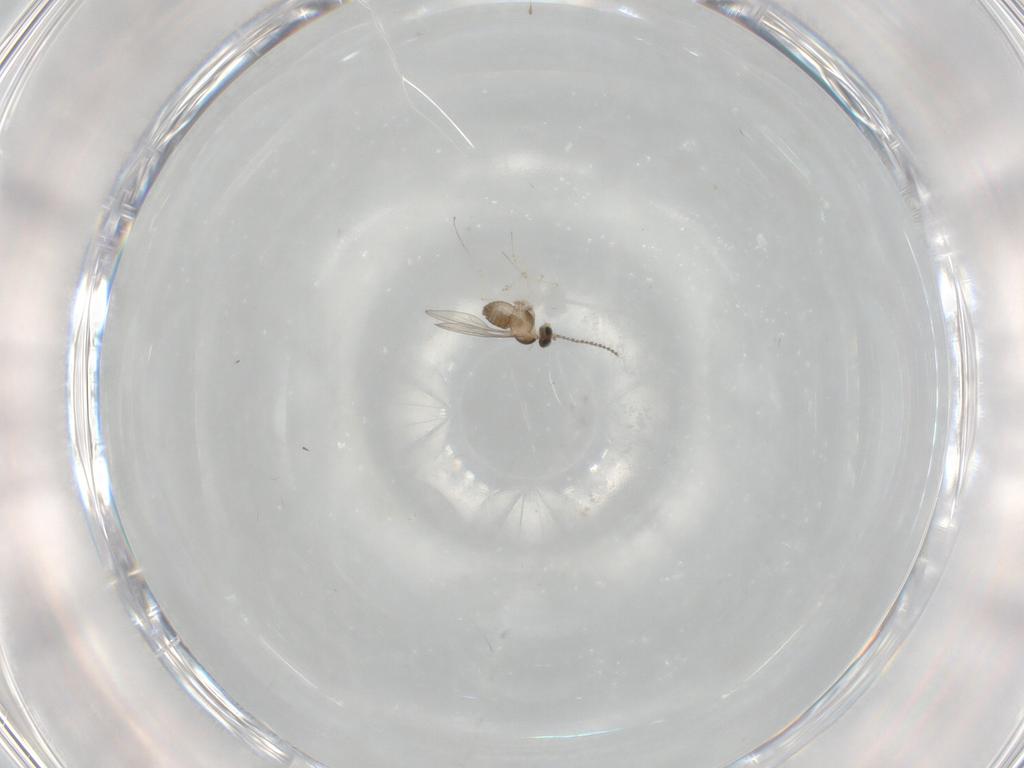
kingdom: Animalia
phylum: Arthropoda
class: Insecta
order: Diptera
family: Cecidomyiidae
